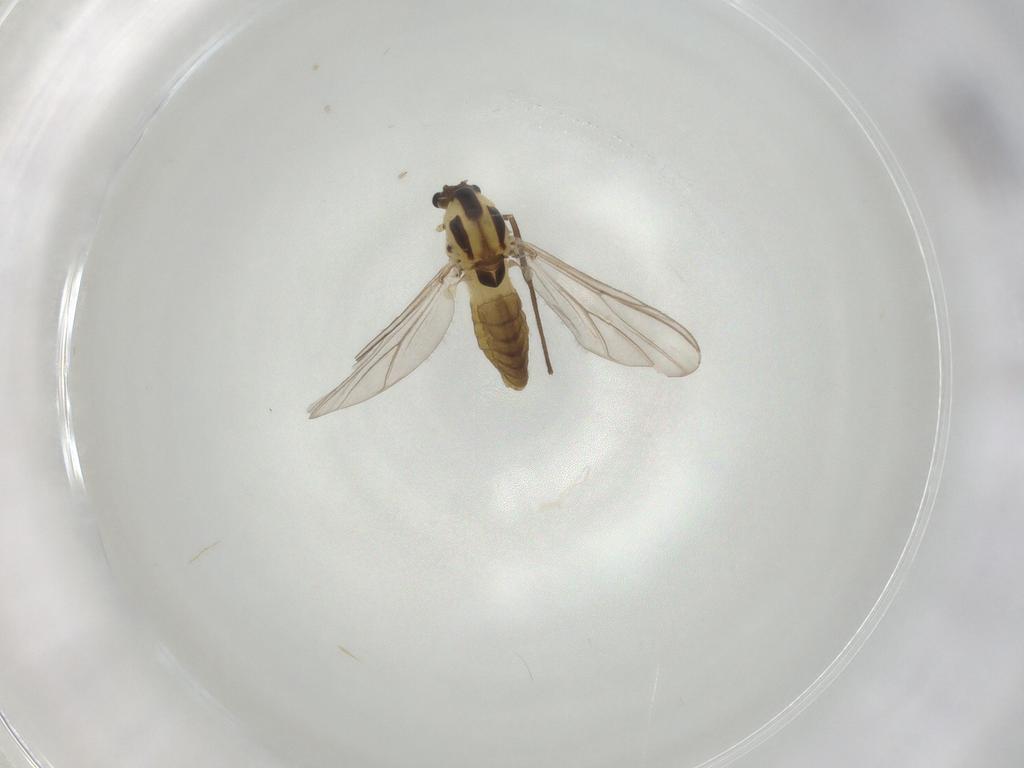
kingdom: Animalia
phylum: Arthropoda
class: Insecta
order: Diptera
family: Chironomidae
